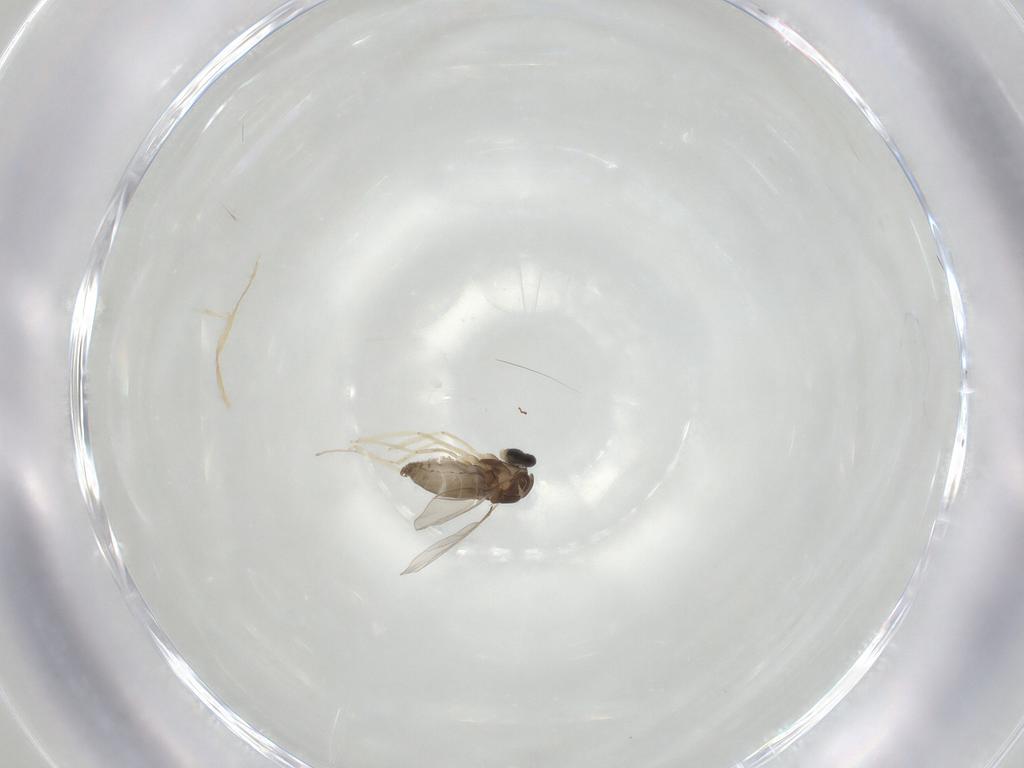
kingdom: Animalia
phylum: Arthropoda
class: Insecta
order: Diptera
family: Cecidomyiidae
